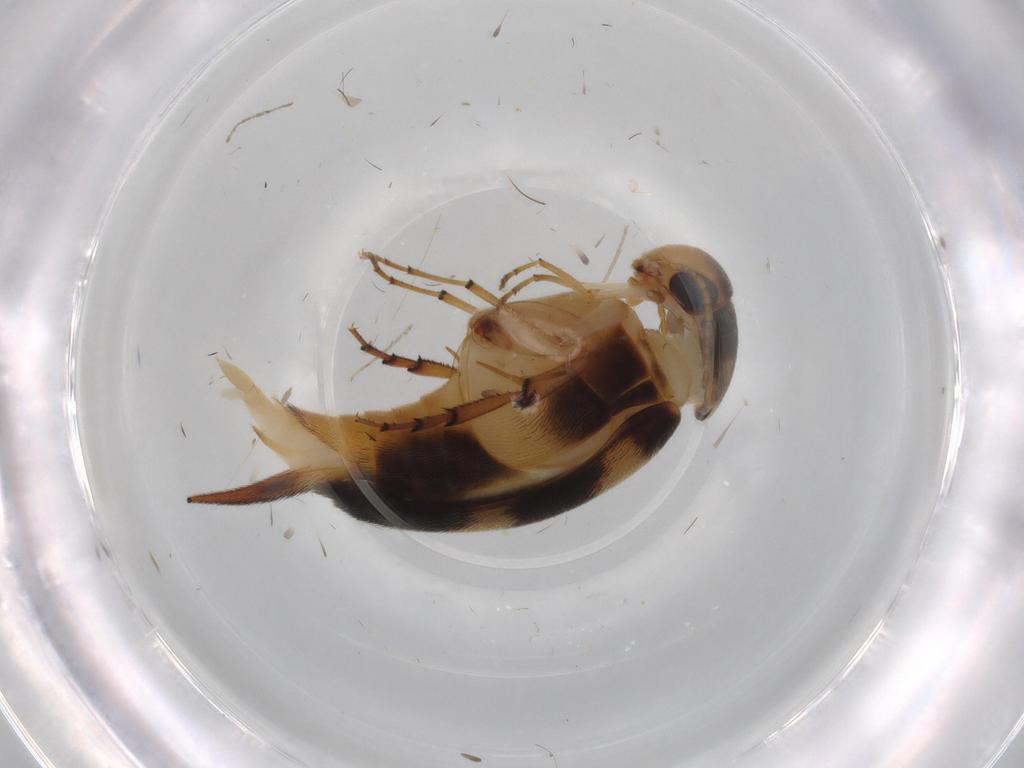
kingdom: Animalia
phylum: Arthropoda
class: Insecta
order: Coleoptera
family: Mordellidae
